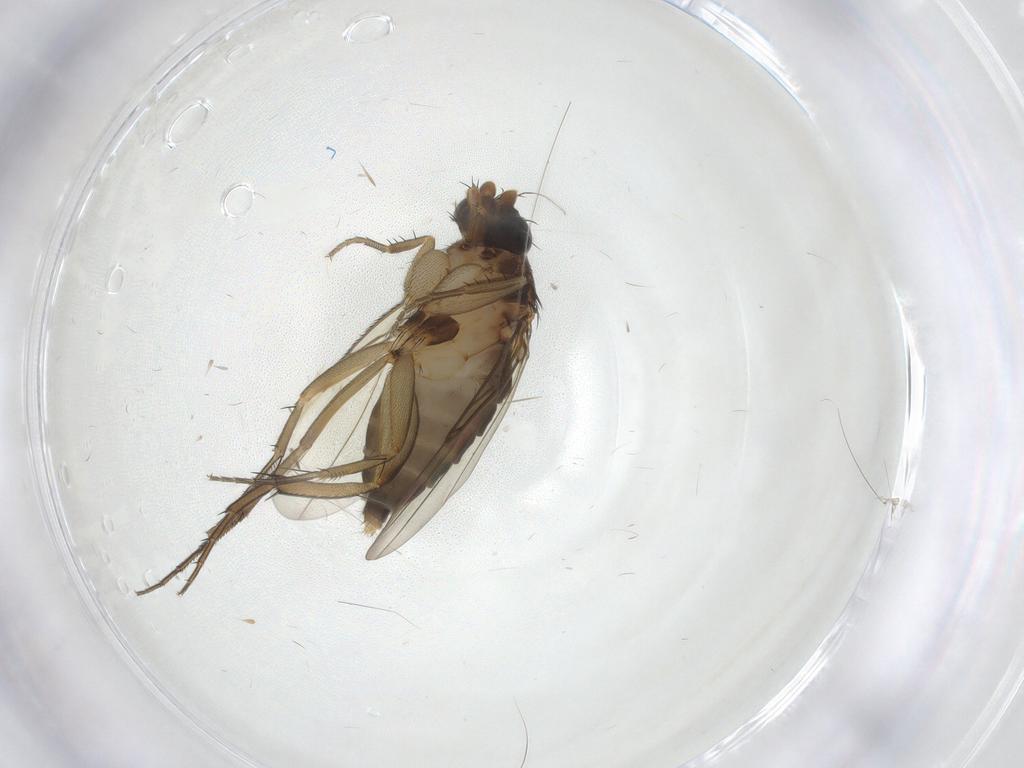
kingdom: Animalia
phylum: Arthropoda
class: Insecta
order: Diptera
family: Phoridae
